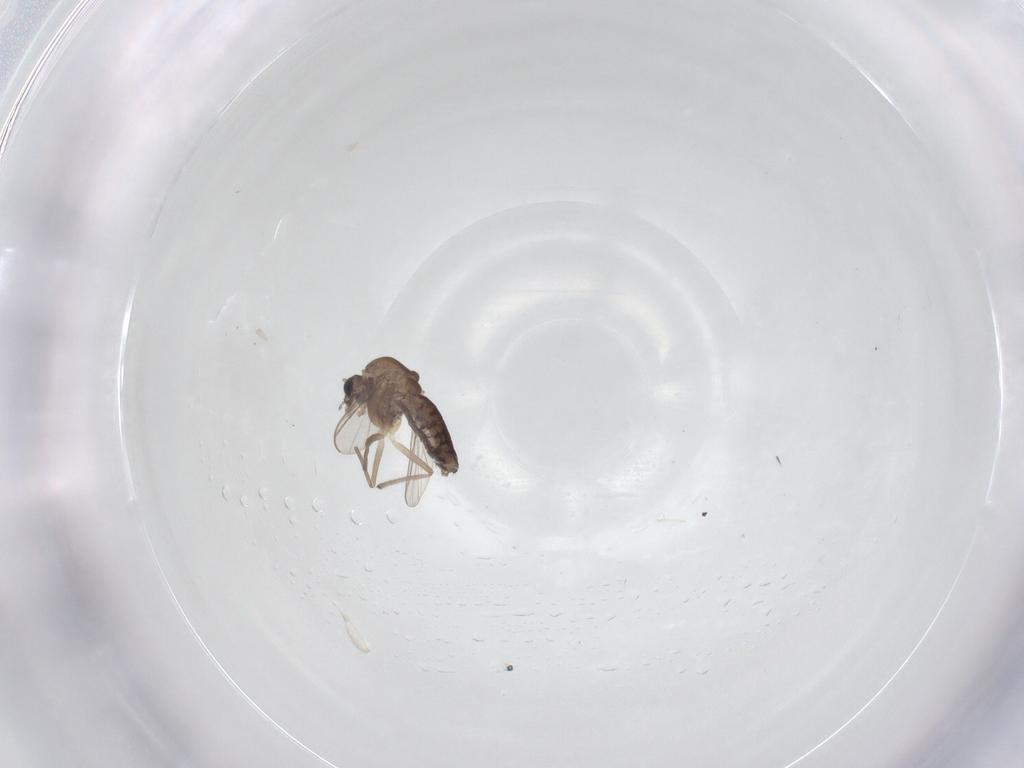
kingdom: Animalia
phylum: Arthropoda
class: Insecta
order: Diptera
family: Chironomidae
